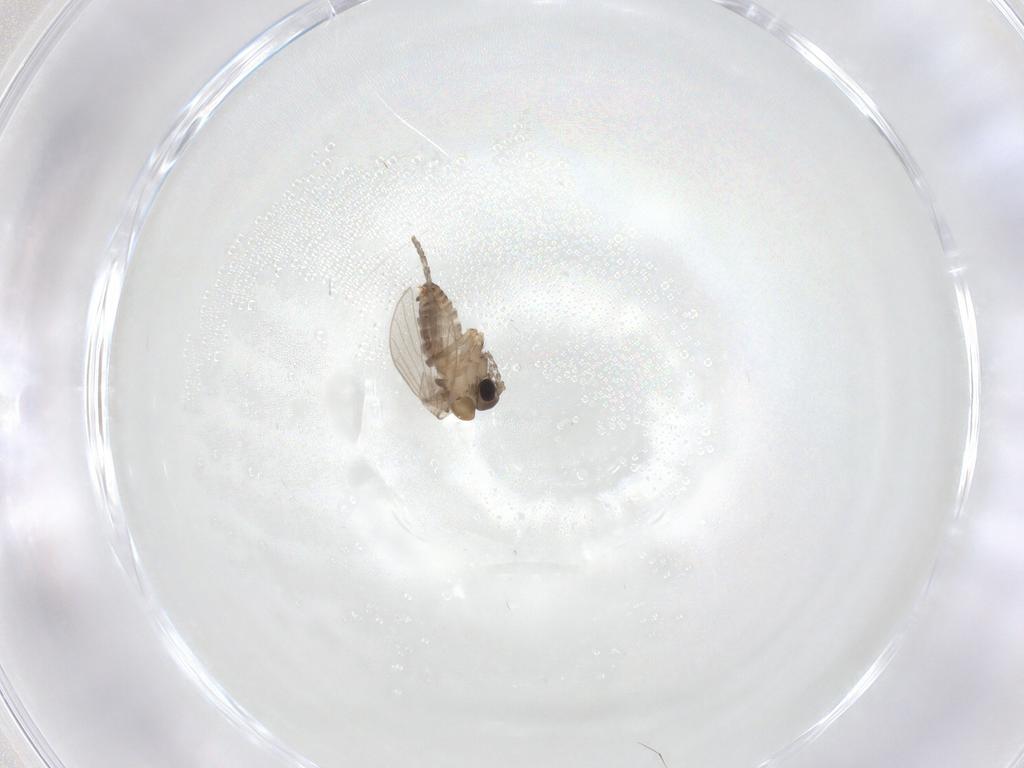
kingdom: Animalia
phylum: Arthropoda
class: Insecta
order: Diptera
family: Psychodidae
